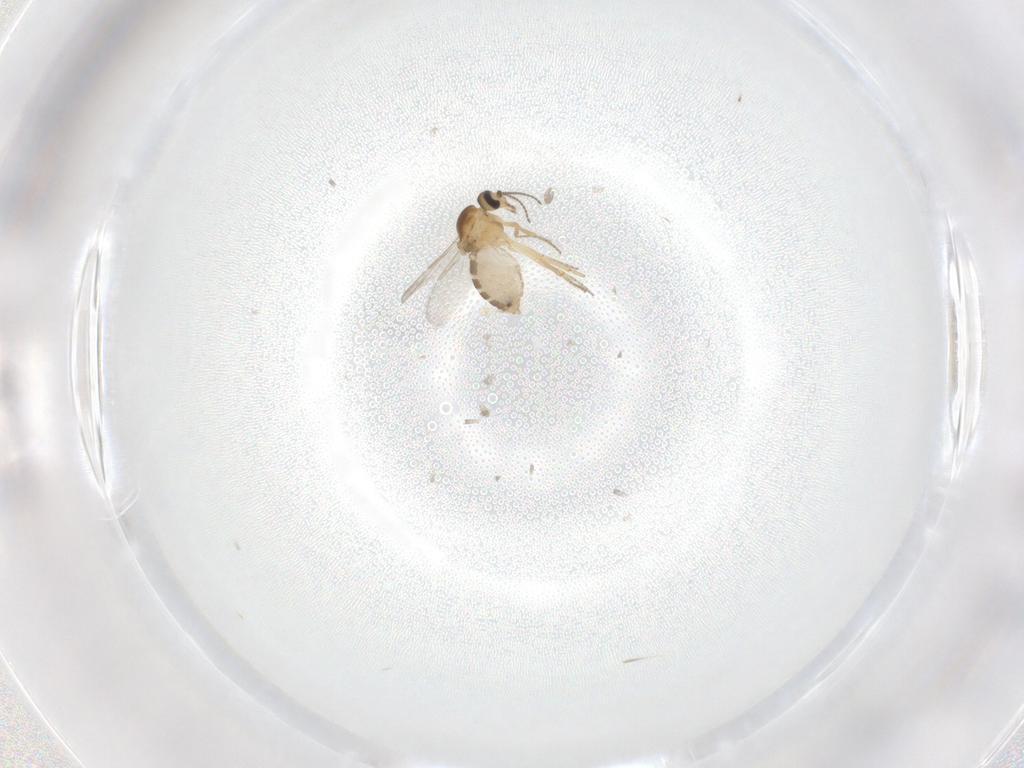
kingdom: Animalia
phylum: Arthropoda
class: Insecta
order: Diptera
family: Ceratopogonidae
